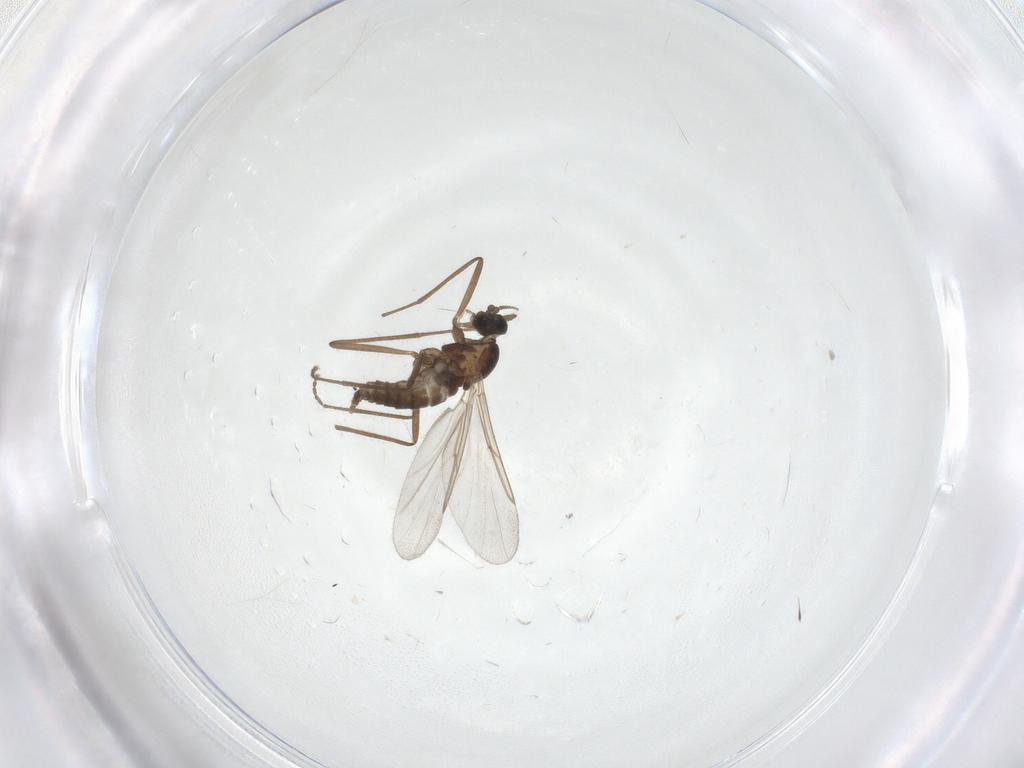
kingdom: Animalia
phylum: Arthropoda
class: Insecta
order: Diptera
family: Cecidomyiidae
